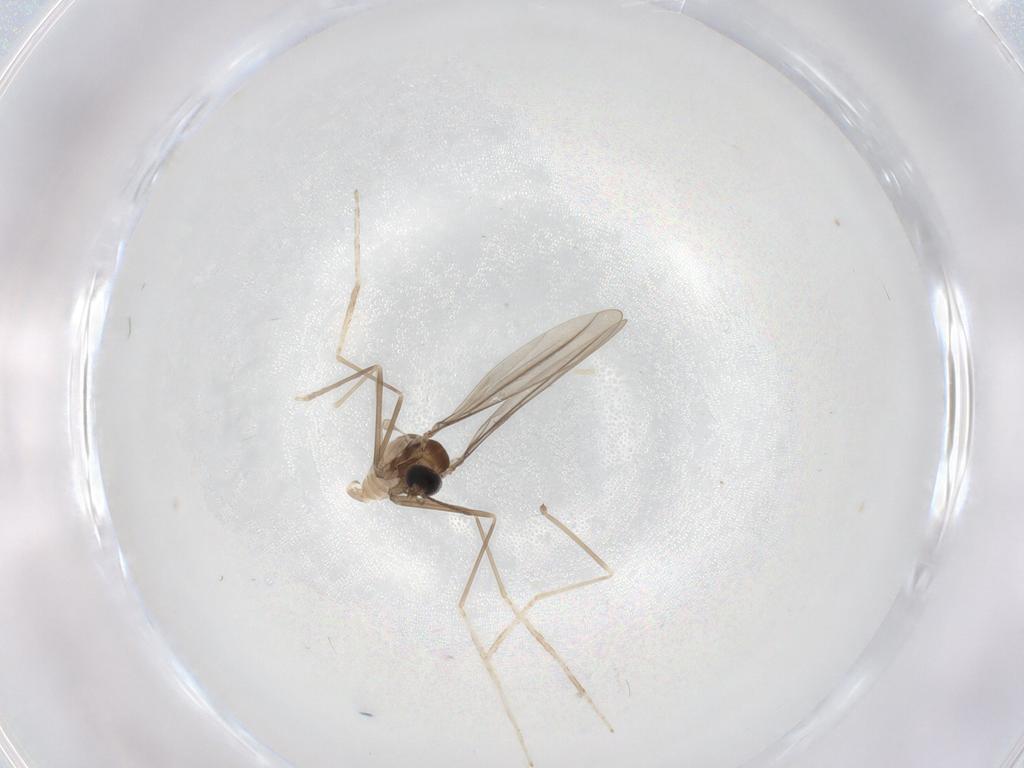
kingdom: Animalia
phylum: Arthropoda
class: Insecta
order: Diptera
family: Cecidomyiidae
